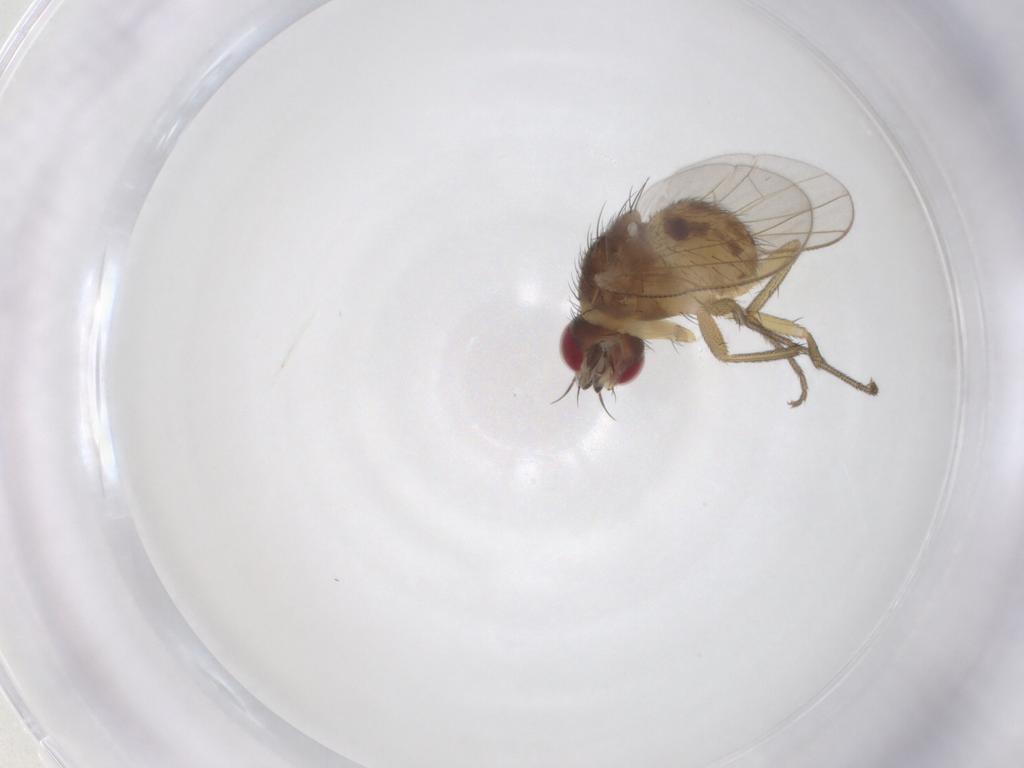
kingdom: Animalia
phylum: Arthropoda
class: Insecta
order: Diptera
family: Muscidae
